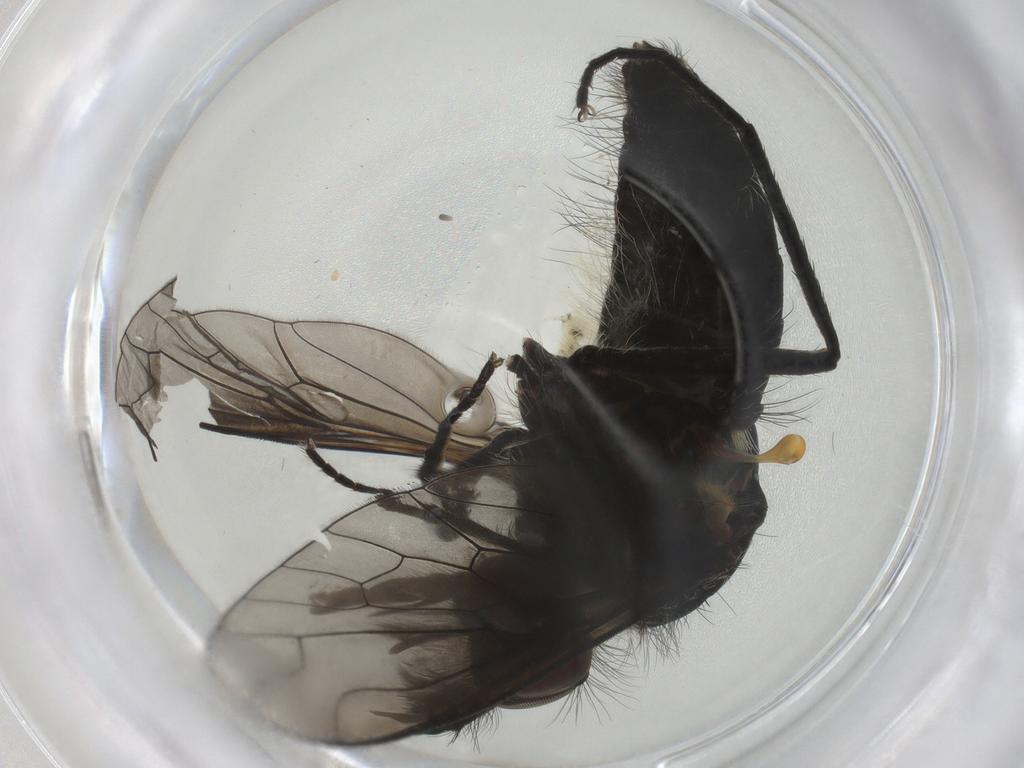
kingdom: Animalia
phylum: Arthropoda
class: Insecta
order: Diptera
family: Bombyliidae
